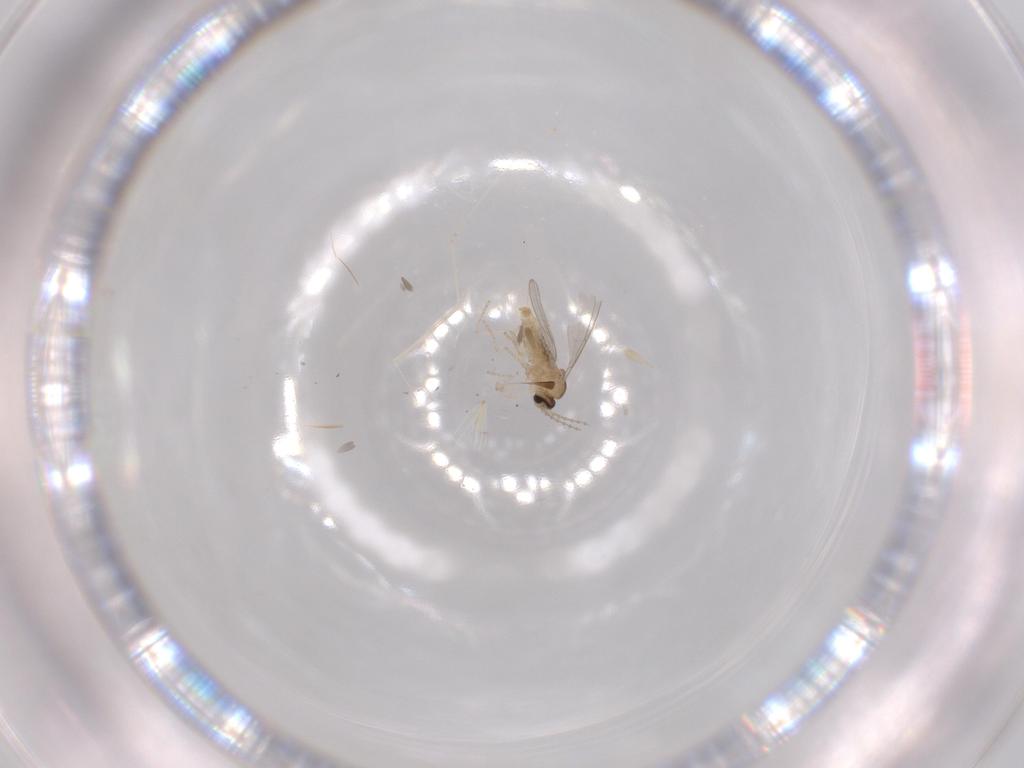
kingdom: Animalia
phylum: Arthropoda
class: Insecta
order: Diptera
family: Cecidomyiidae
